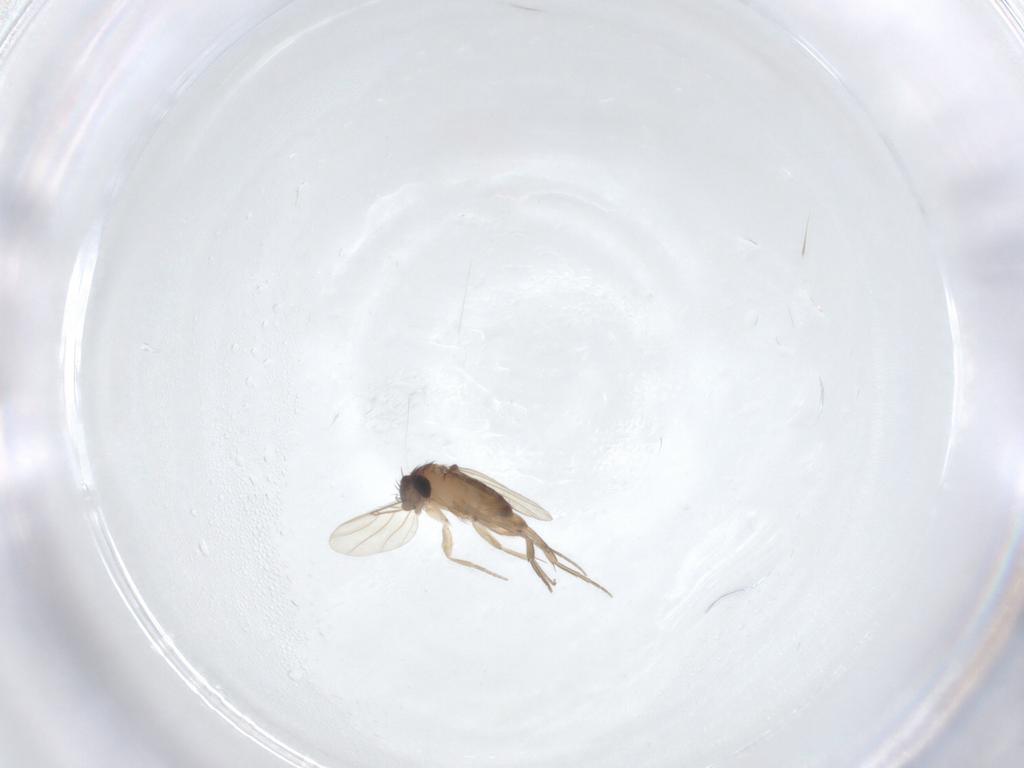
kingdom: Animalia
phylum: Arthropoda
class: Insecta
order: Diptera
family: Phoridae
